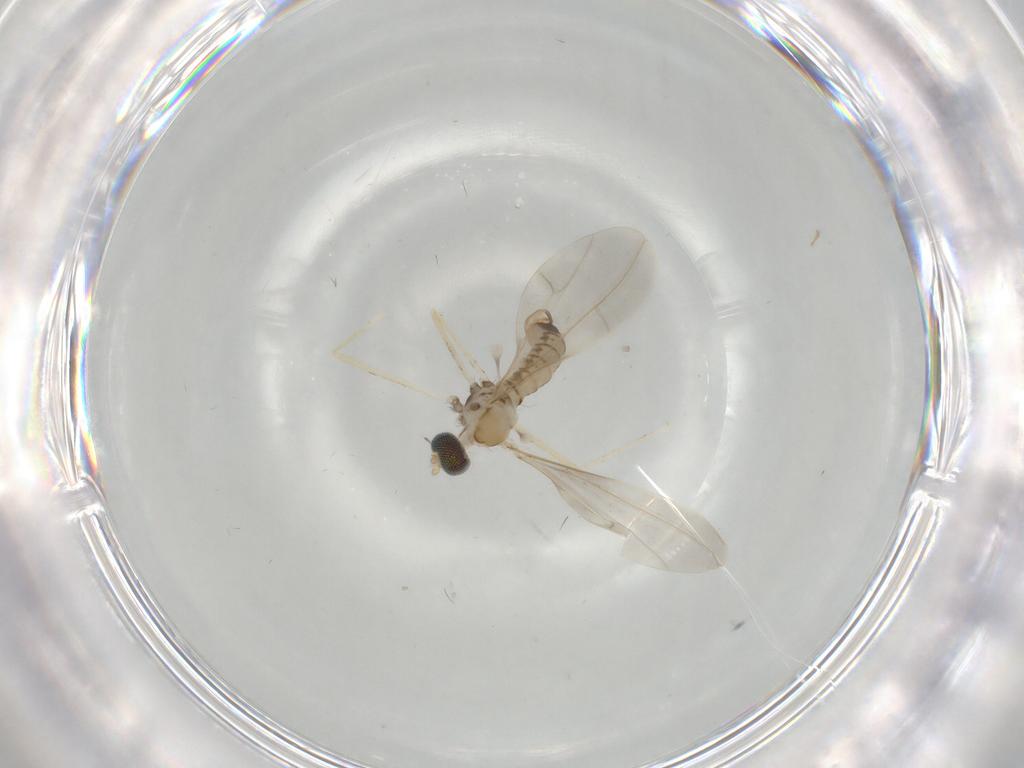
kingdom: Animalia
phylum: Arthropoda
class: Insecta
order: Diptera
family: Cecidomyiidae
